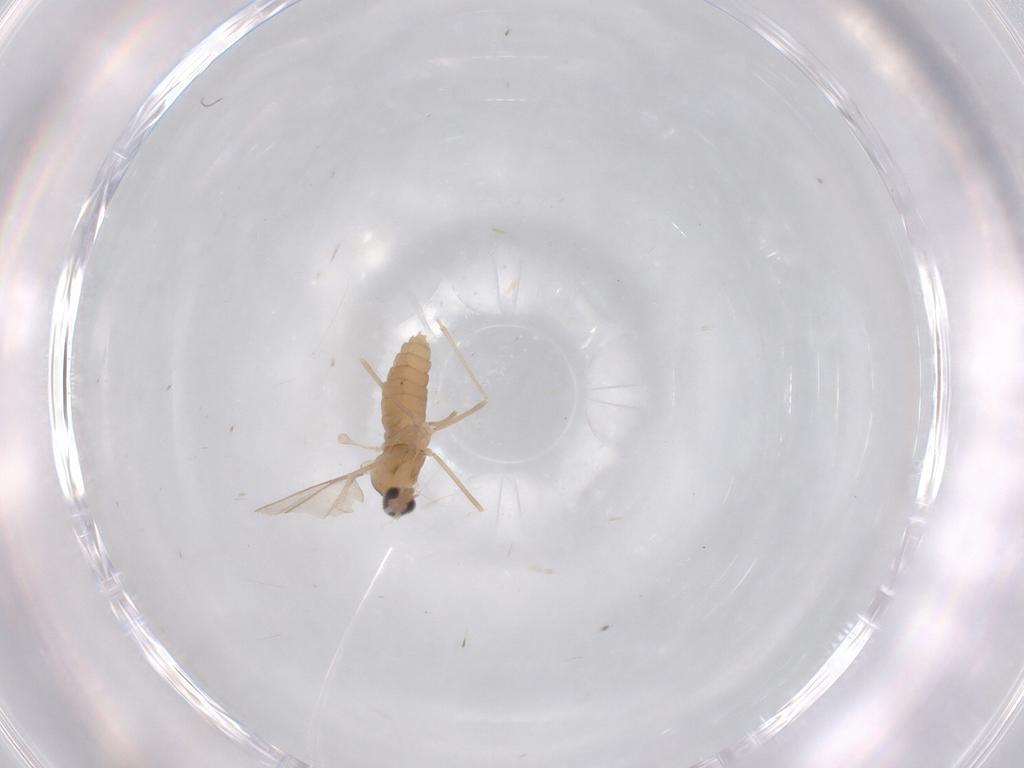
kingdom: Animalia
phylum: Arthropoda
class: Insecta
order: Diptera
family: Cecidomyiidae
